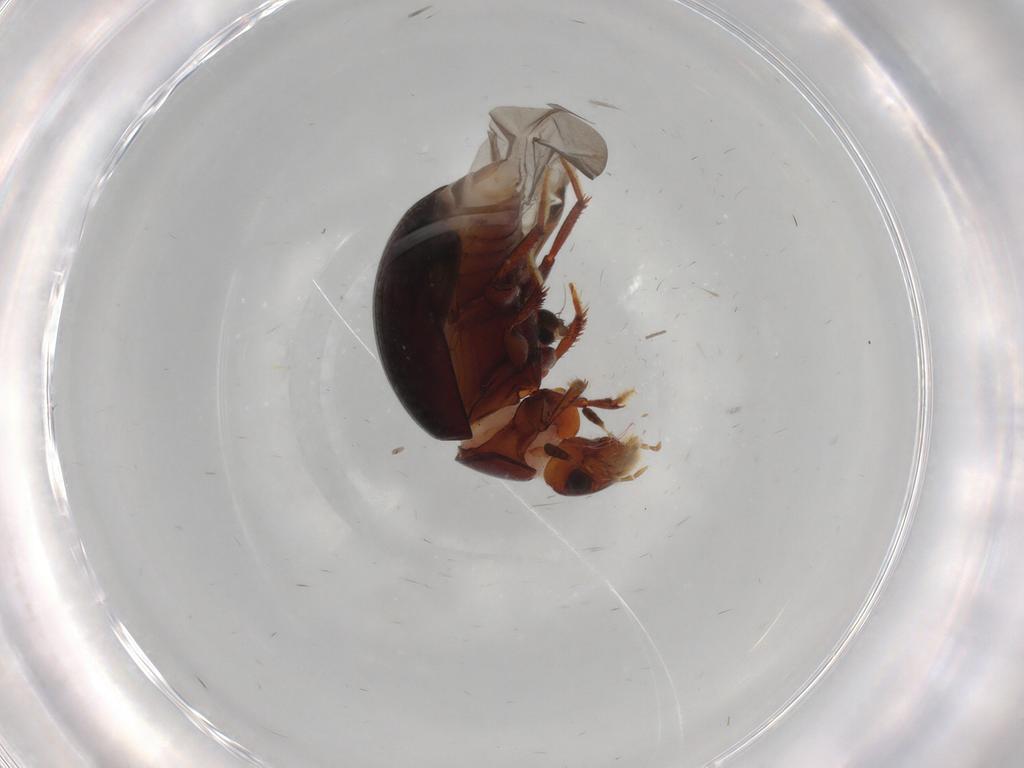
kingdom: Animalia
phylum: Arthropoda
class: Insecta
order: Coleoptera
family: Hydrophilidae
